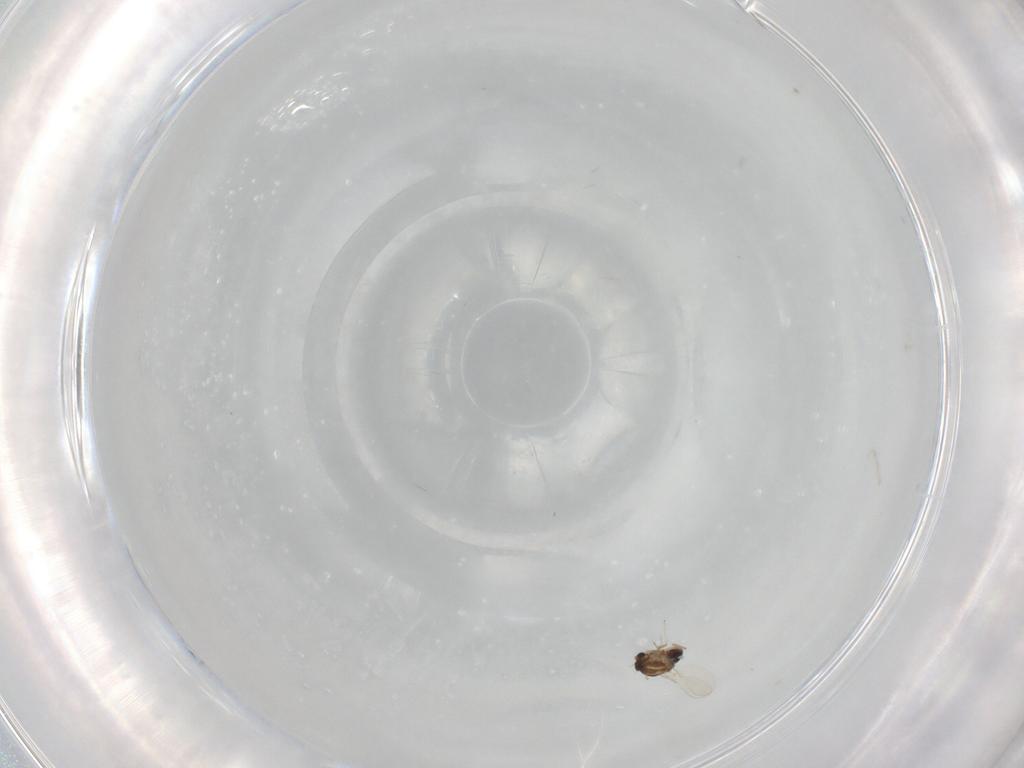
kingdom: Animalia
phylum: Arthropoda
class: Insecta
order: Diptera
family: Chironomidae
